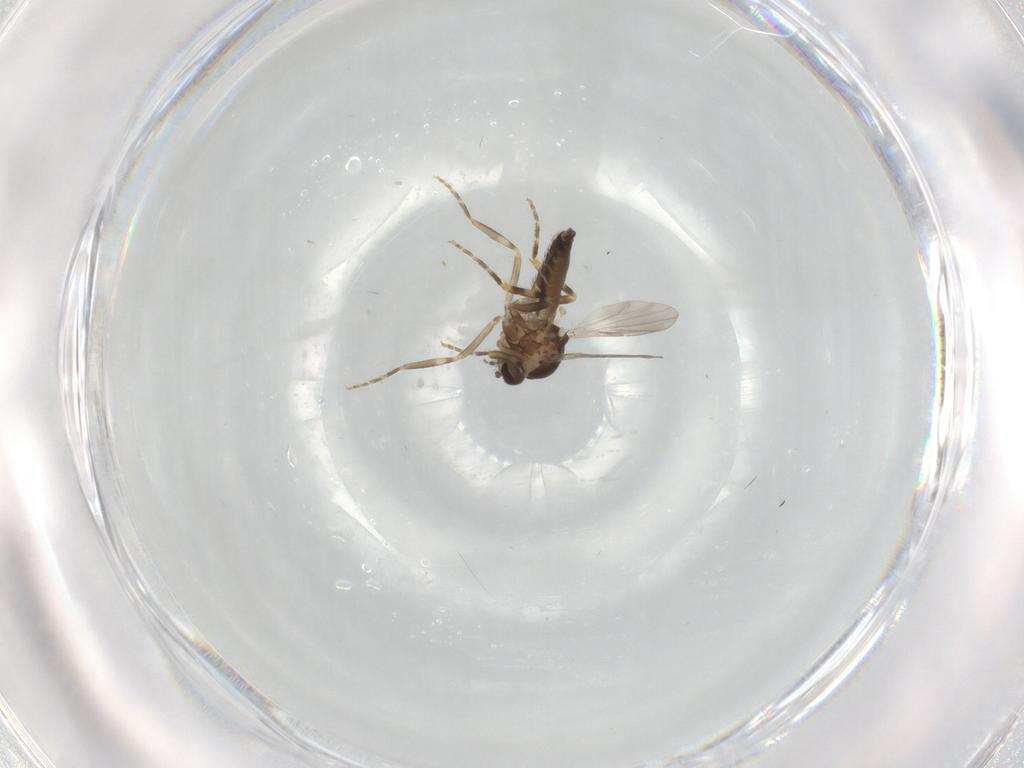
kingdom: Animalia
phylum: Arthropoda
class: Insecta
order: Diptera
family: Ceratopogonidae
